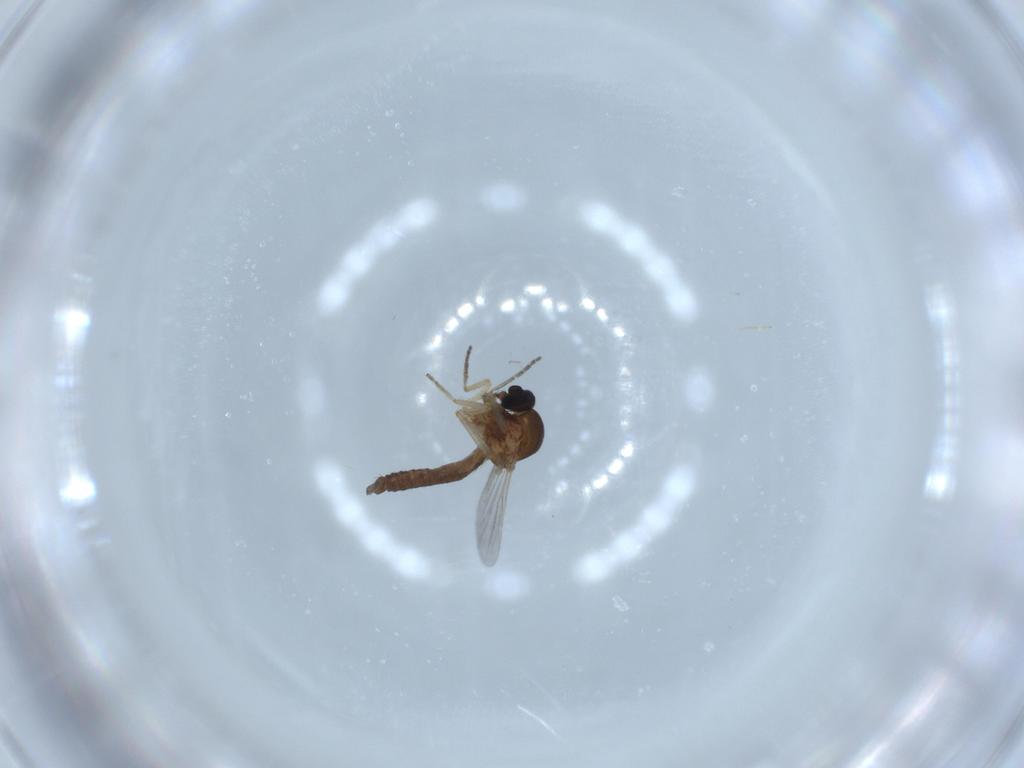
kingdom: Animalia
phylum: Arthropoda
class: Insecta
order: Diptera
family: Cecidomyiidae
